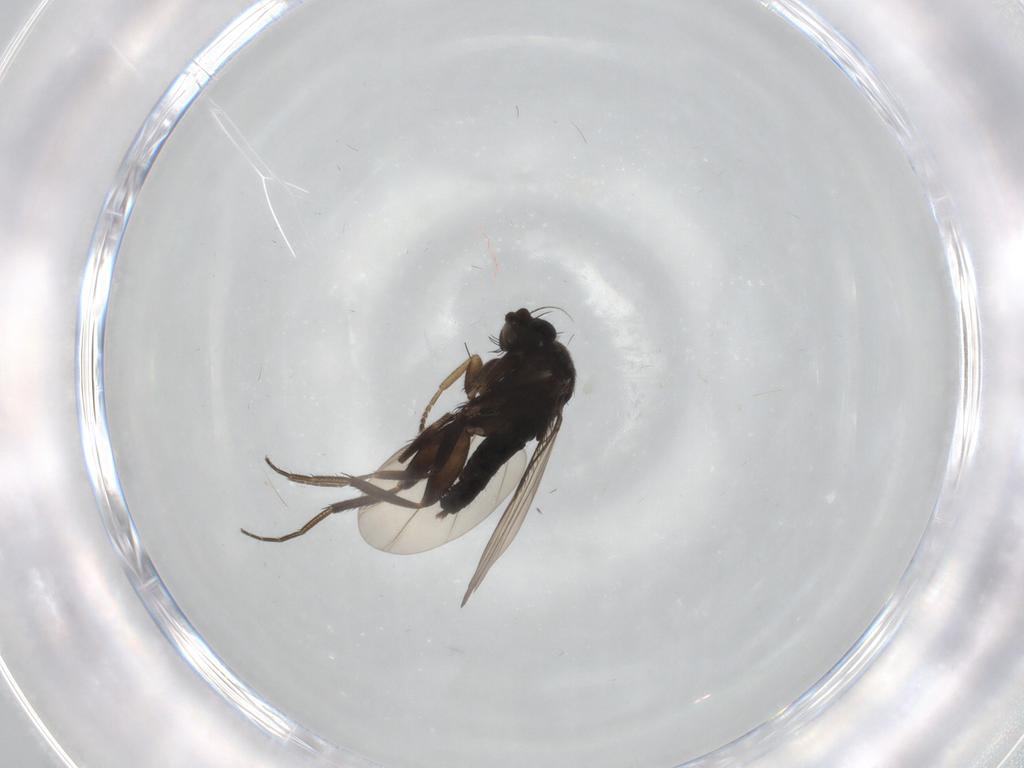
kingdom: Animalia
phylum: Arthropoda
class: Insecta
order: Diptera
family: Phoridae
